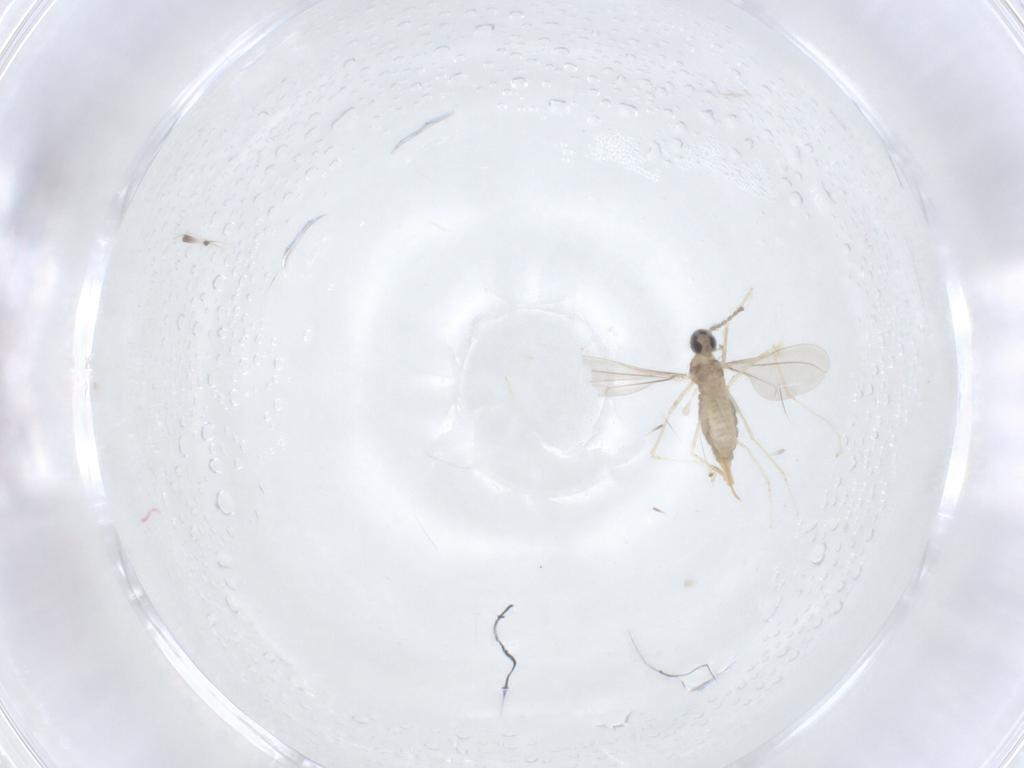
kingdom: Animalia
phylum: Arthropoda
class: Insecta
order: Diptera
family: Cecidomyiidae
